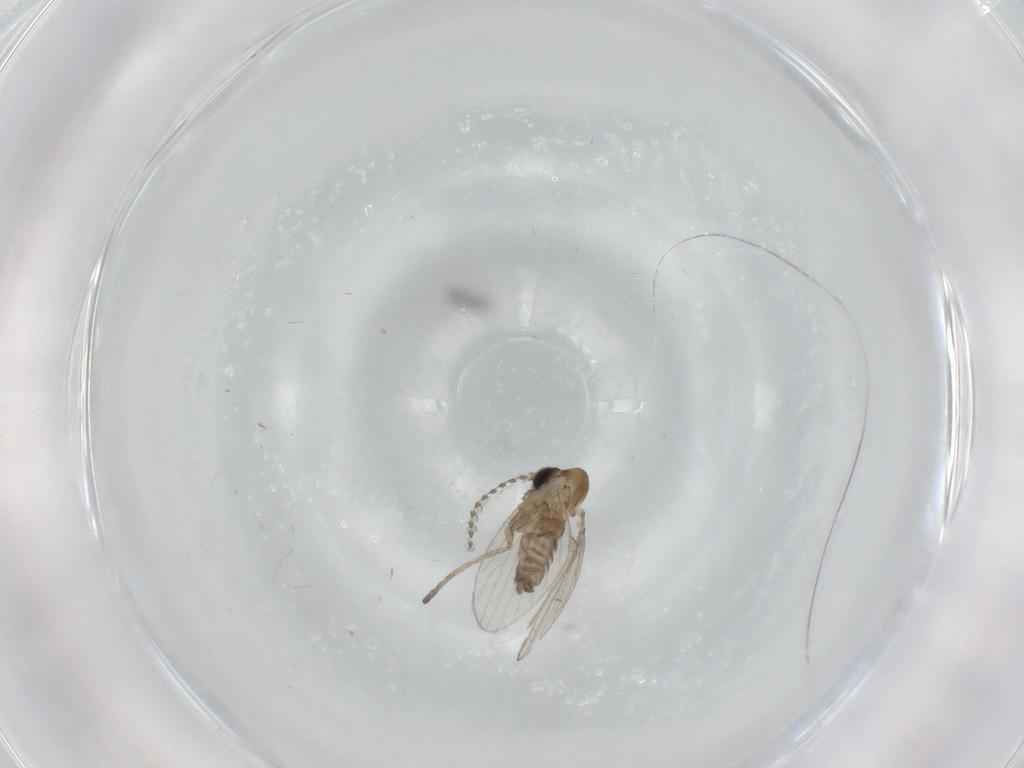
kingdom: Animalia
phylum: Arthropoda
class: Insecta
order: Diptera
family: Psychodidae
